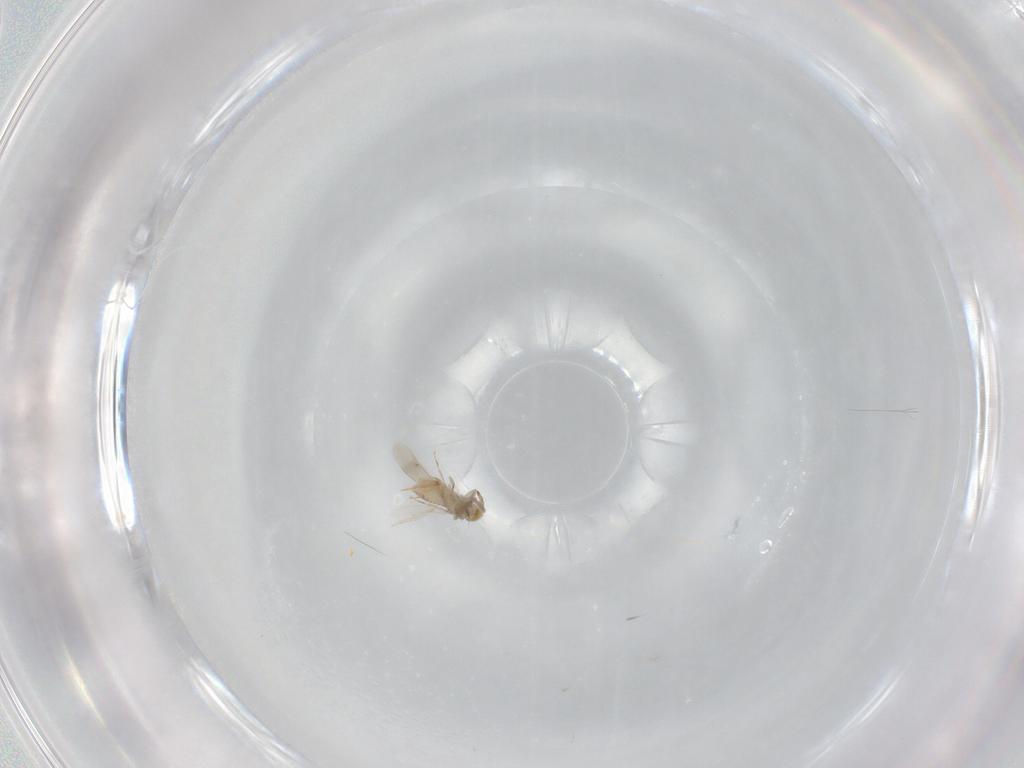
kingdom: Animalia
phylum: Arthropoda
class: Insecta
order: Hymenoptera
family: Aphelinidae
